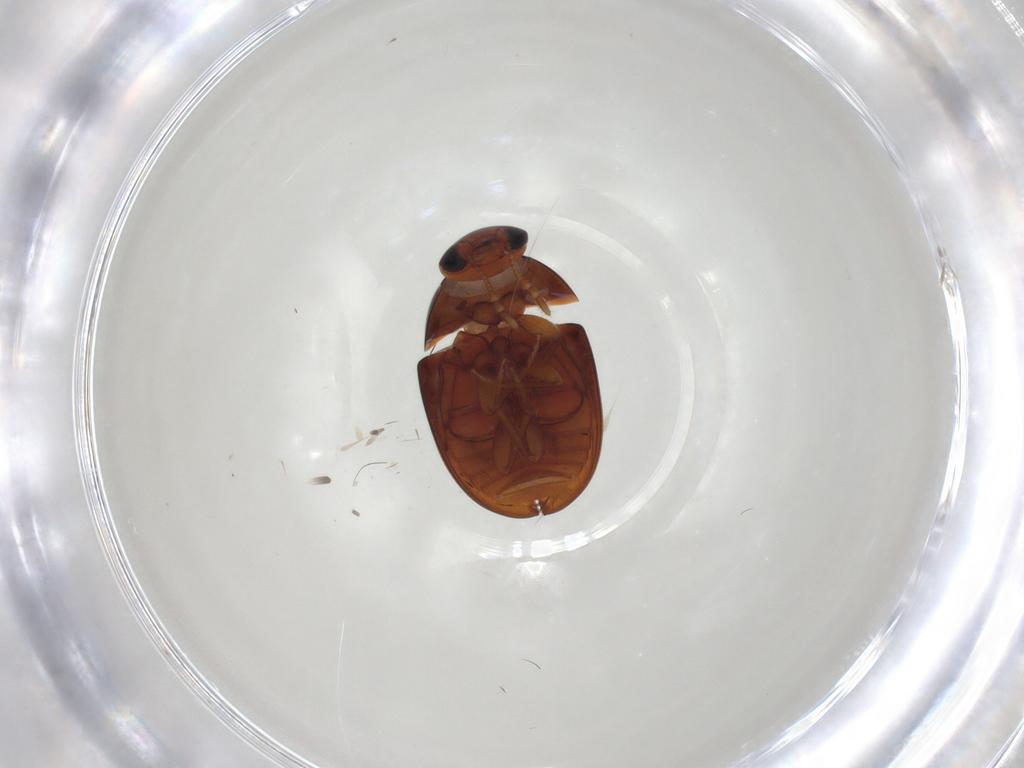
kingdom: Animalia
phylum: Arthropoda
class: Insecta
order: Coleoptera
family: Phalacridae
